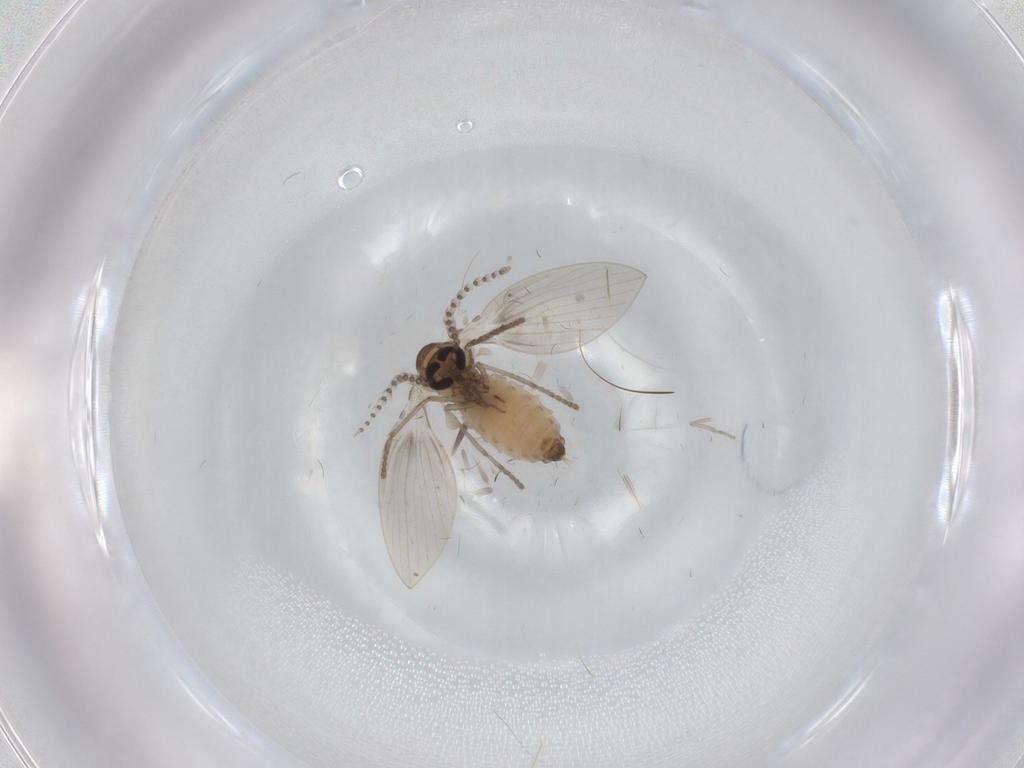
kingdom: Animalia
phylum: Arthropoda
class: Insecta
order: Diptera
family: Psychodidae
